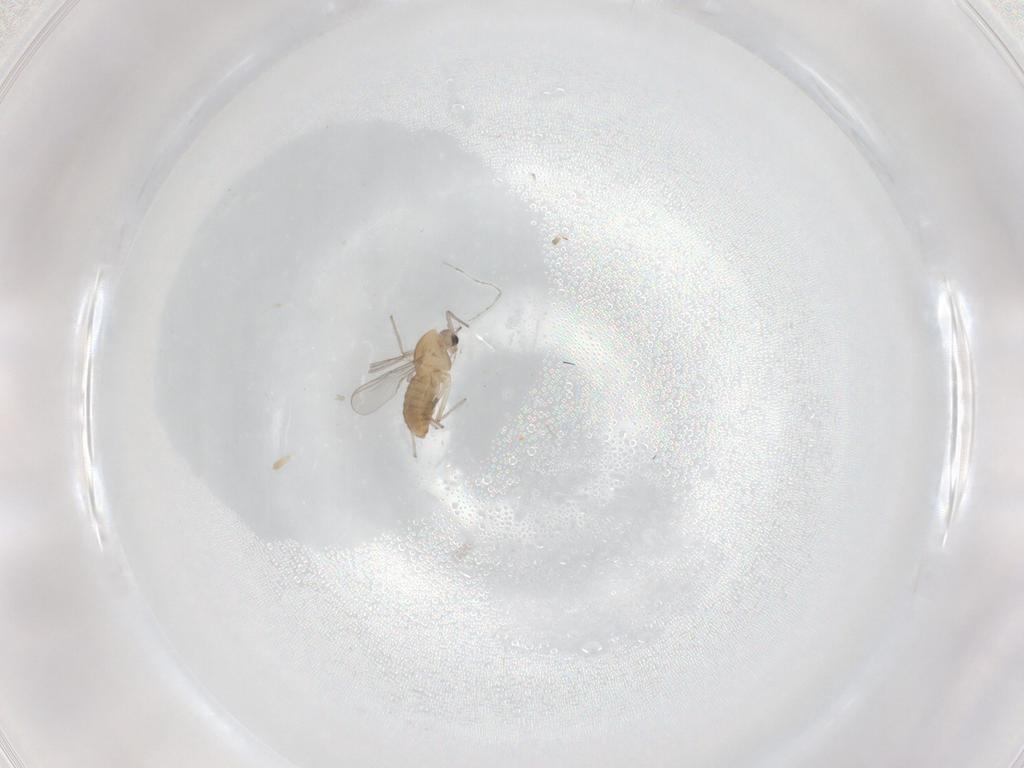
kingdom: Animalia
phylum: Arthropoda
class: Insecta
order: Diptera
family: Chironomidae
